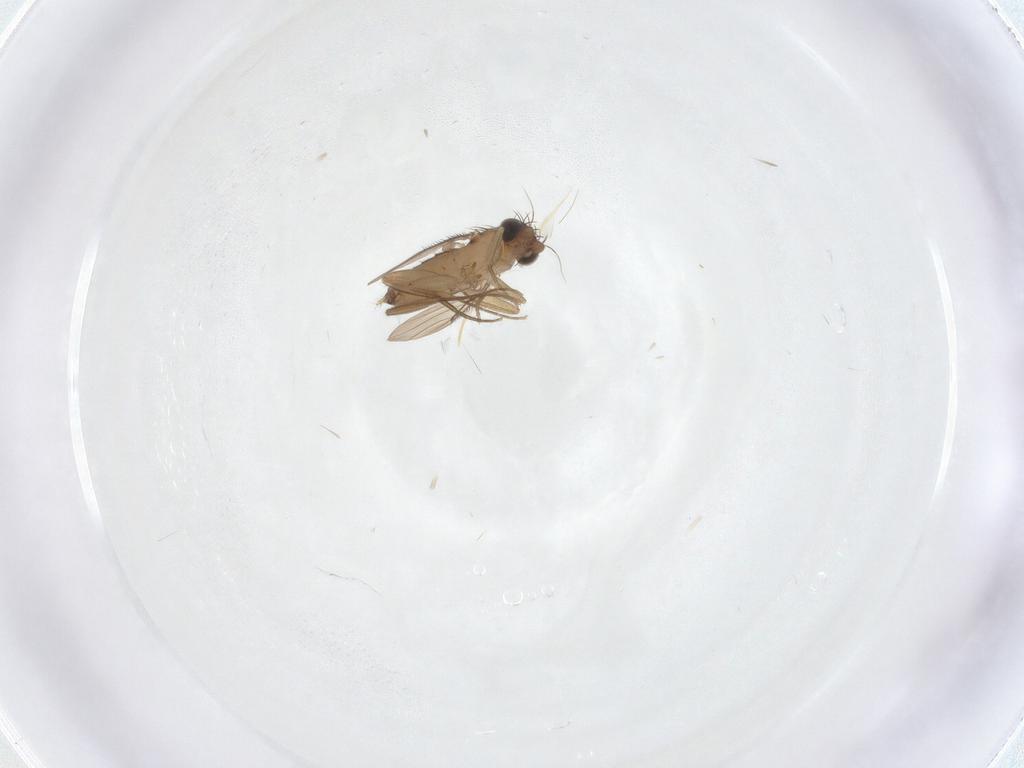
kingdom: Animalia
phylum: Arthropoda
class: Insecta
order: Diptera
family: Phoridae
